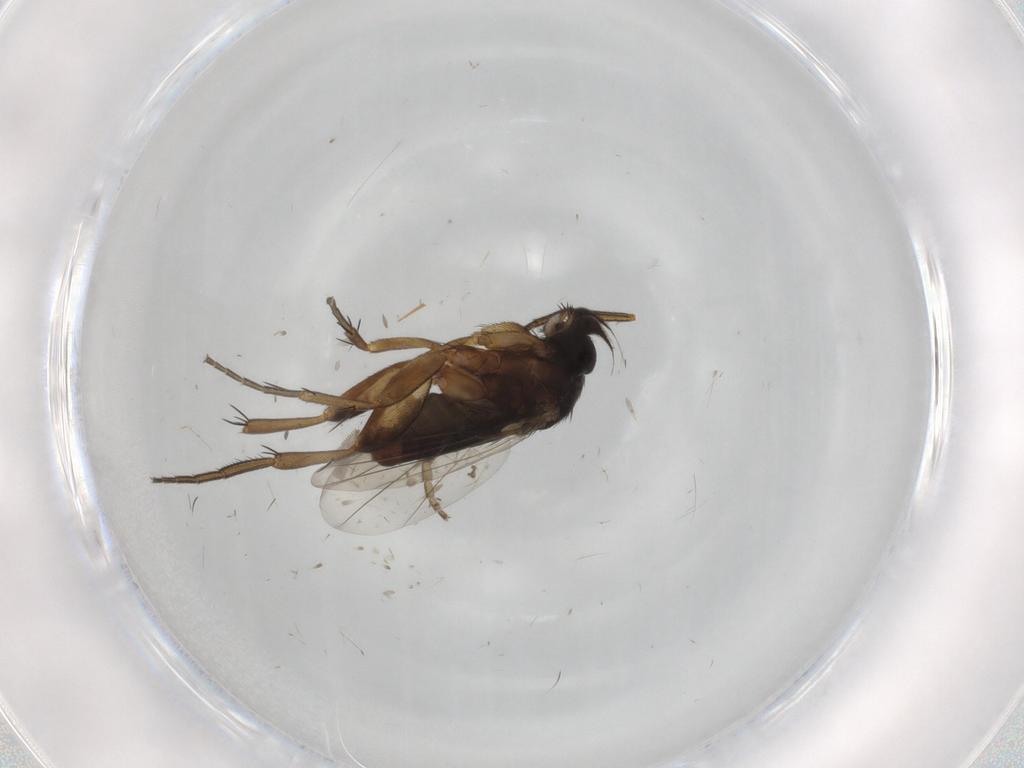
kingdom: Animalia
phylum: Arthropoda
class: Insecta
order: Diptera
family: Phoridae
